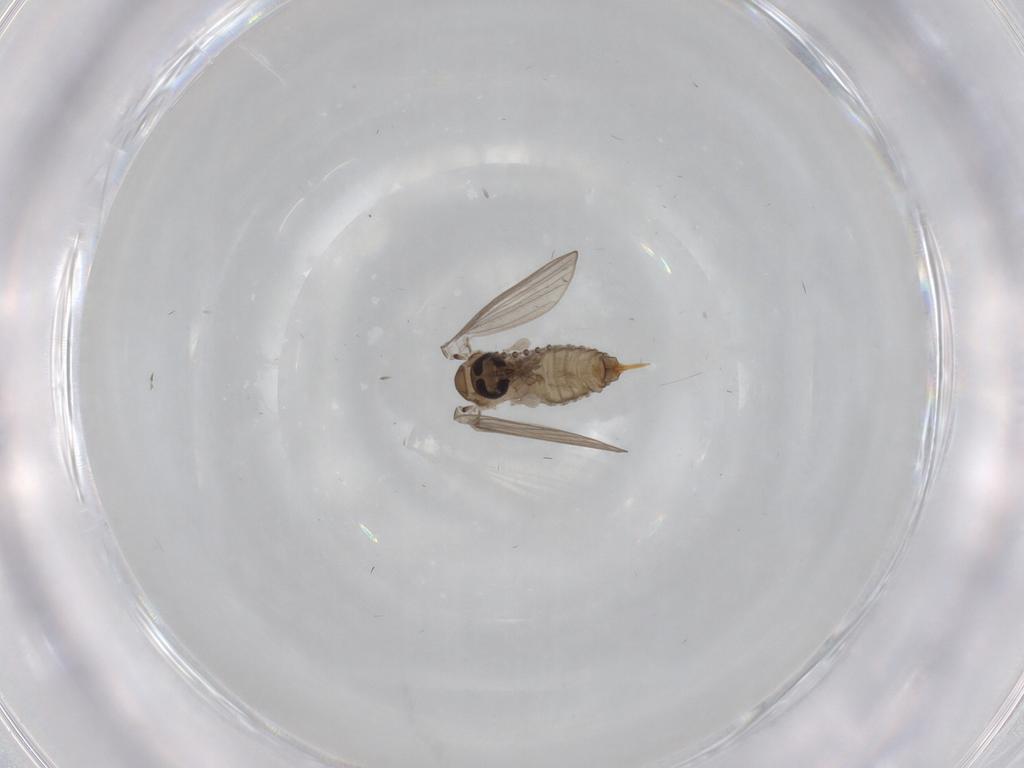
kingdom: Animalia
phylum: Arthropoda
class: Insecta
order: Diptera
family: Psychodidae
